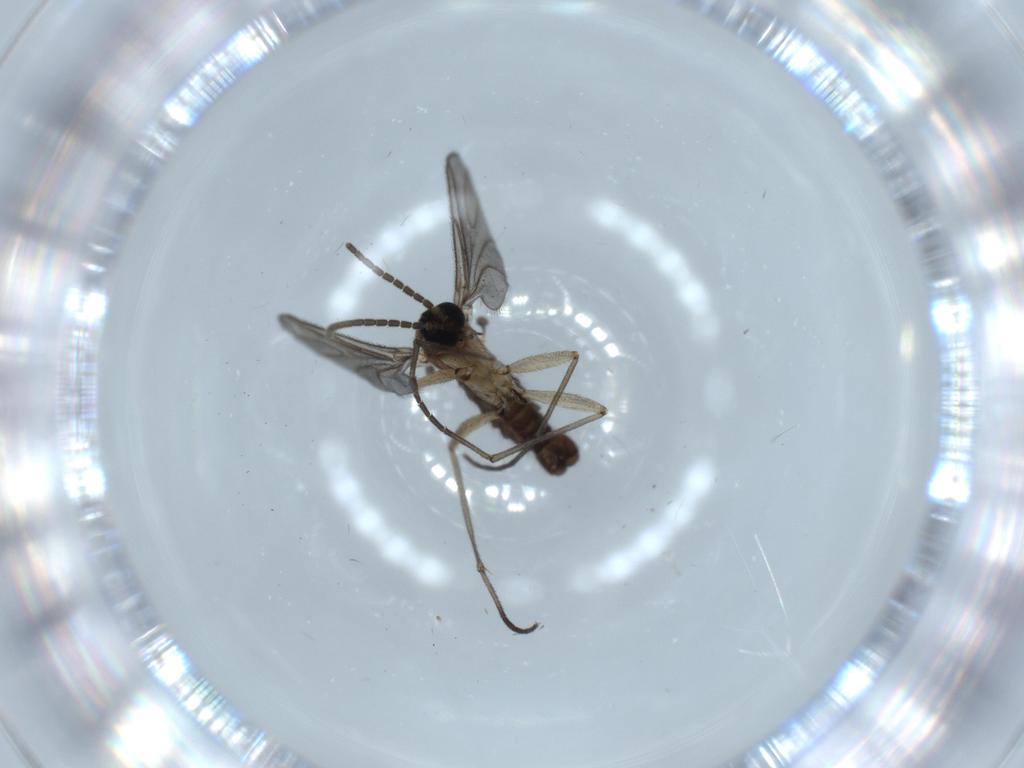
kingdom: Animalia
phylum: Arthropoda
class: Insecta
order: Diptera
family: Sciaridae
